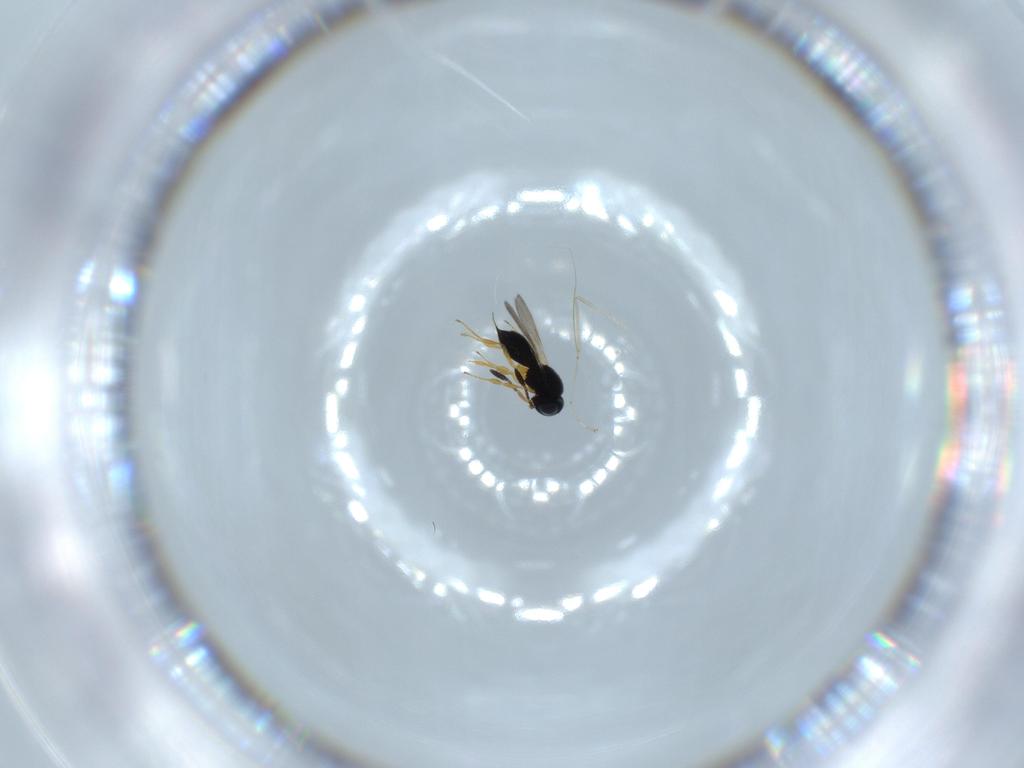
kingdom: Animalia
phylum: Arthropoda
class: Insecta
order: Hymenoptera
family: Scelionidae
